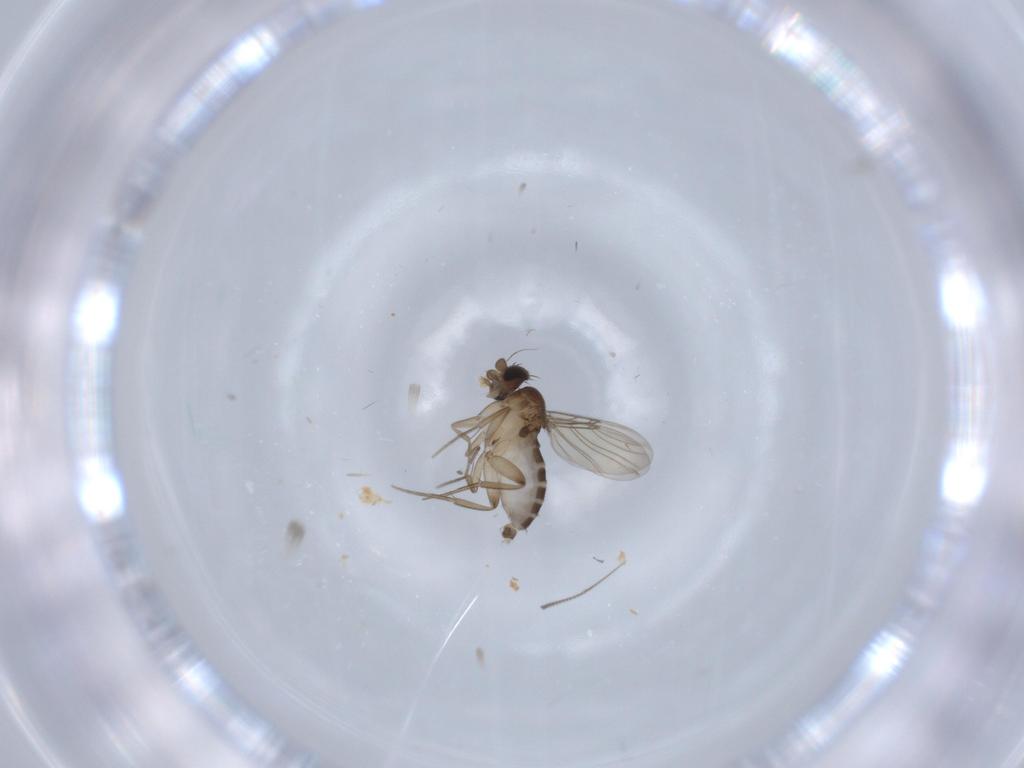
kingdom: Animalia
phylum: Arthropoda
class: Insecta
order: Diptera
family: Phoridae
